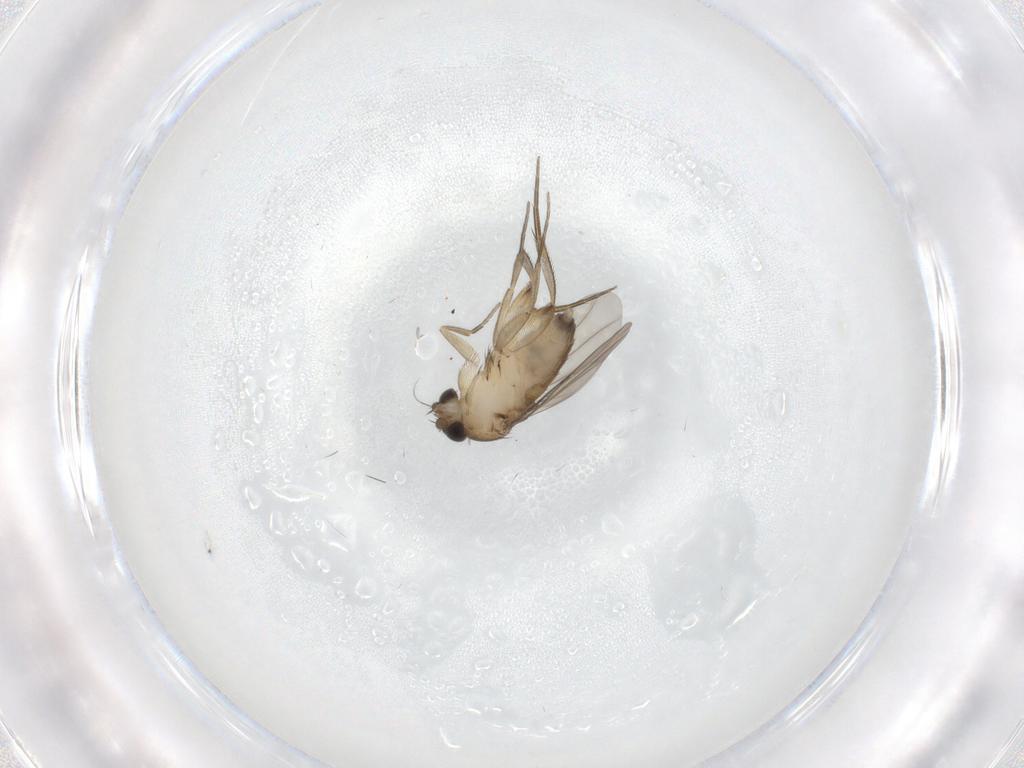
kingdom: Animalia
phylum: Arthropoda
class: Insecta
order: Diptera
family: Phoridae
